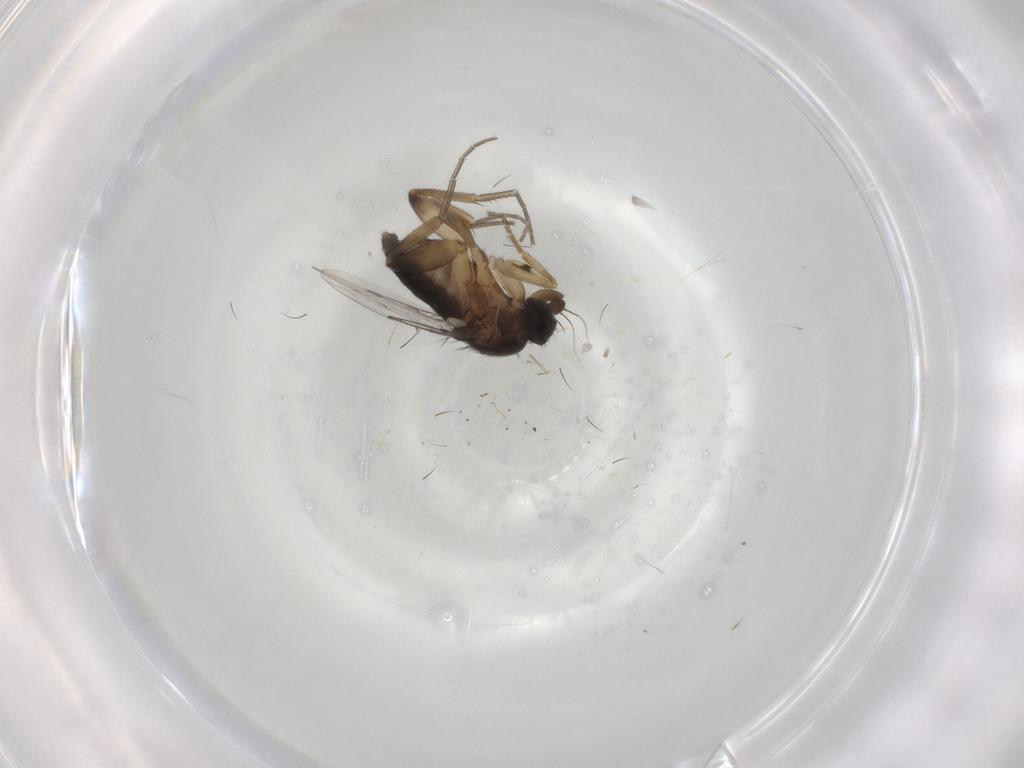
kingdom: Animalia
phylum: Arthropoda
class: Insecta
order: Diptera
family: Phoridae
